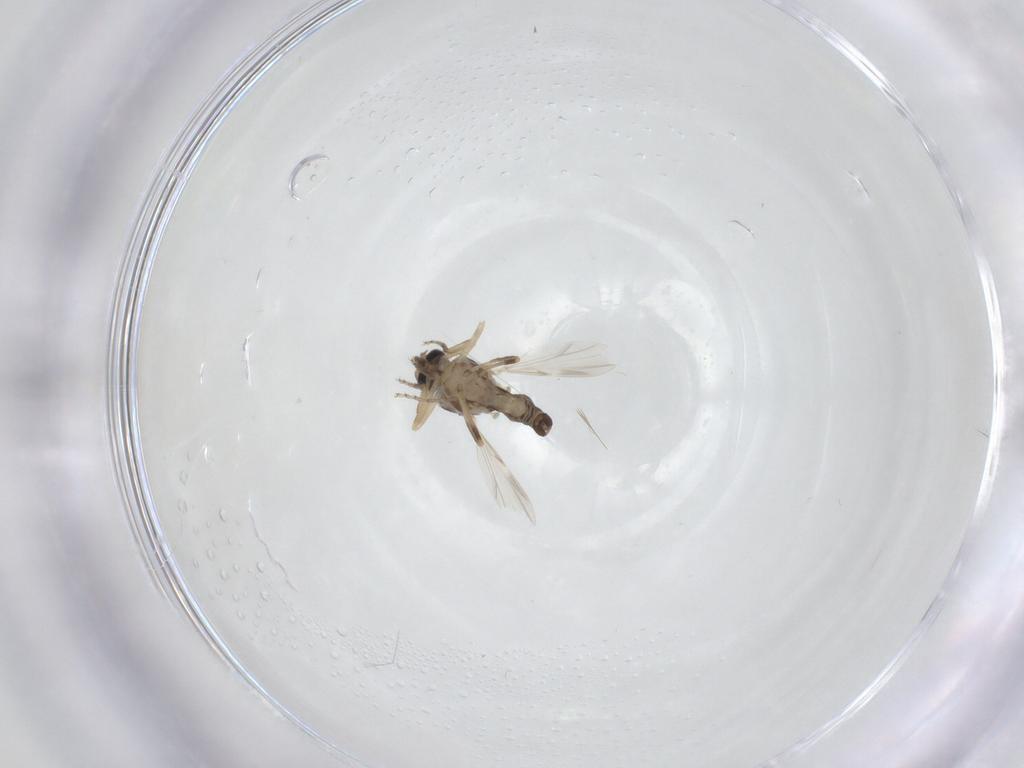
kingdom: Animalia
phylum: Arthropoda
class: Insecta
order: Diptera
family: Ceratopogonidae
